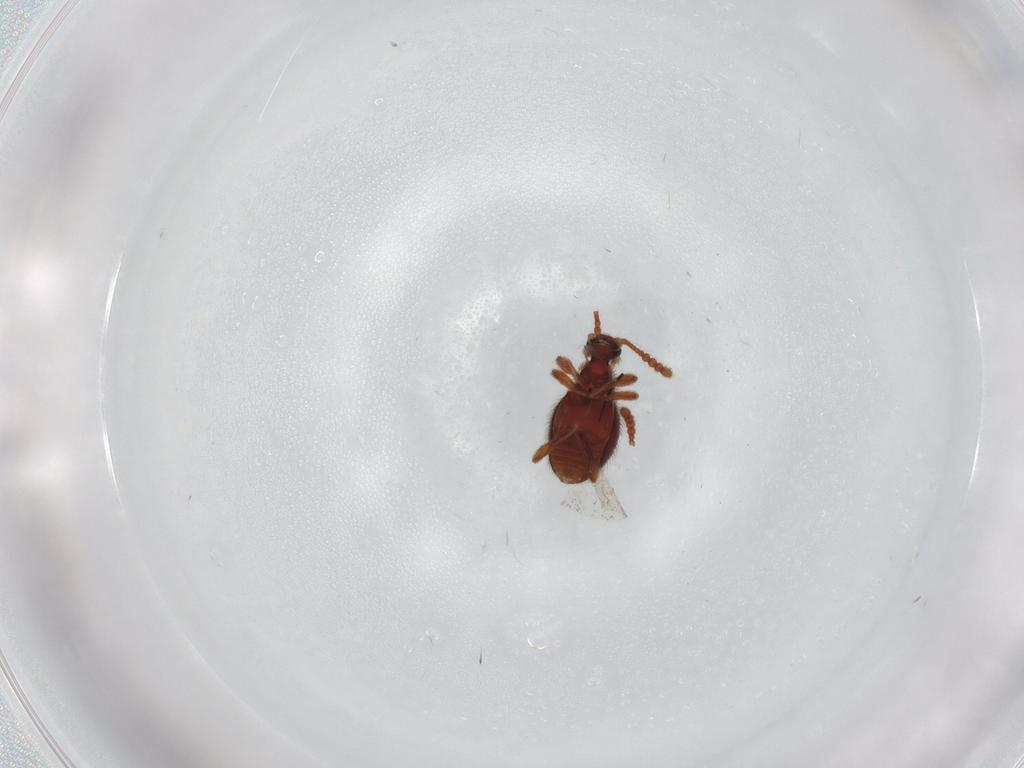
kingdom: Animalia
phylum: Arthropoda
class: Insecta
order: Coleoptera
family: Staphylinidae
